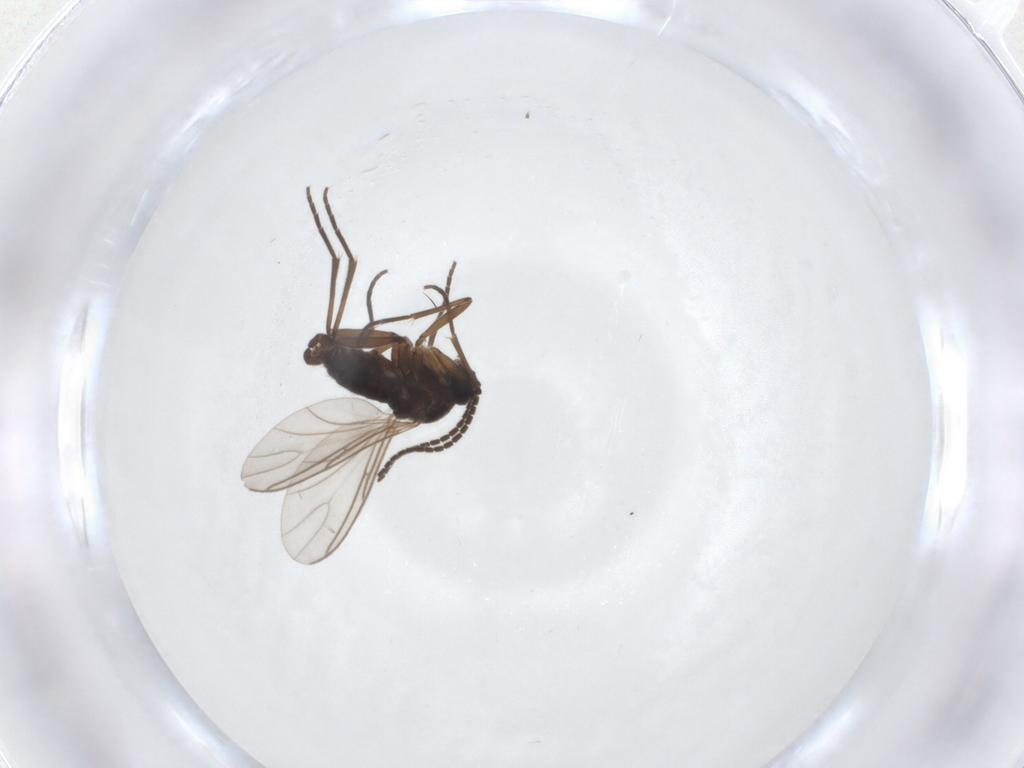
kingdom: Animalia
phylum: Arthropoda
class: Insecta
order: Diptera
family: Sciaridae
